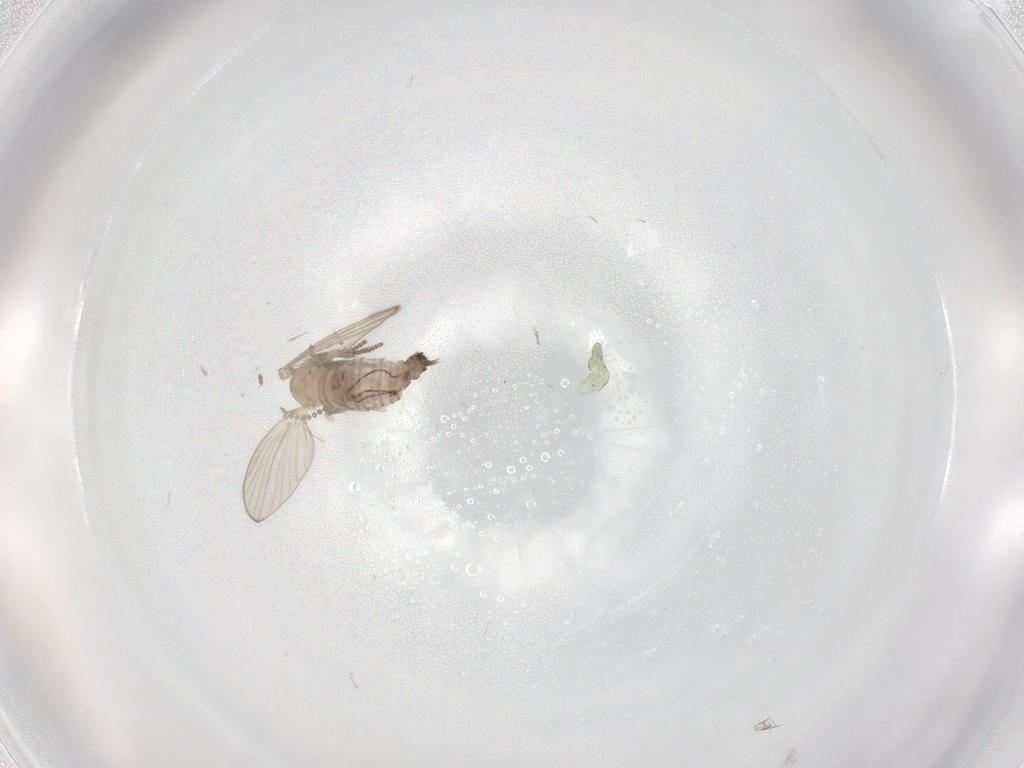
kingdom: Animalia
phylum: Arthropoda
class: Insecta
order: Diptera
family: Psychodidae
